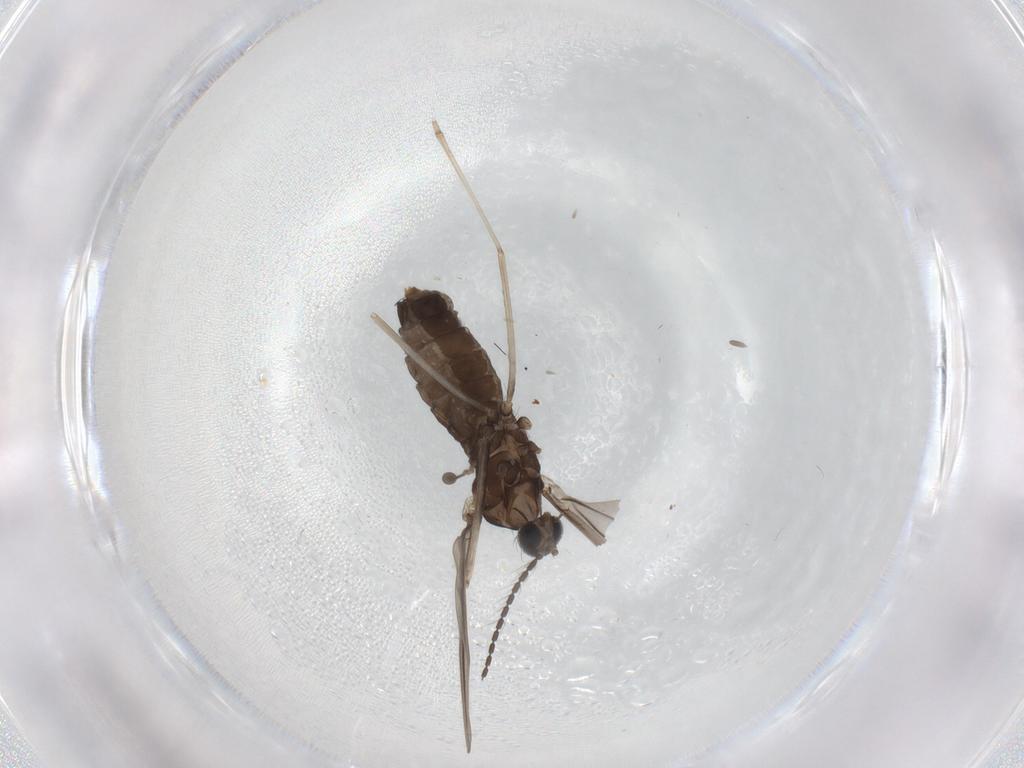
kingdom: Animalia
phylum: Arthropoda
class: Insecta
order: Diptera
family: Cecidomyiidae
